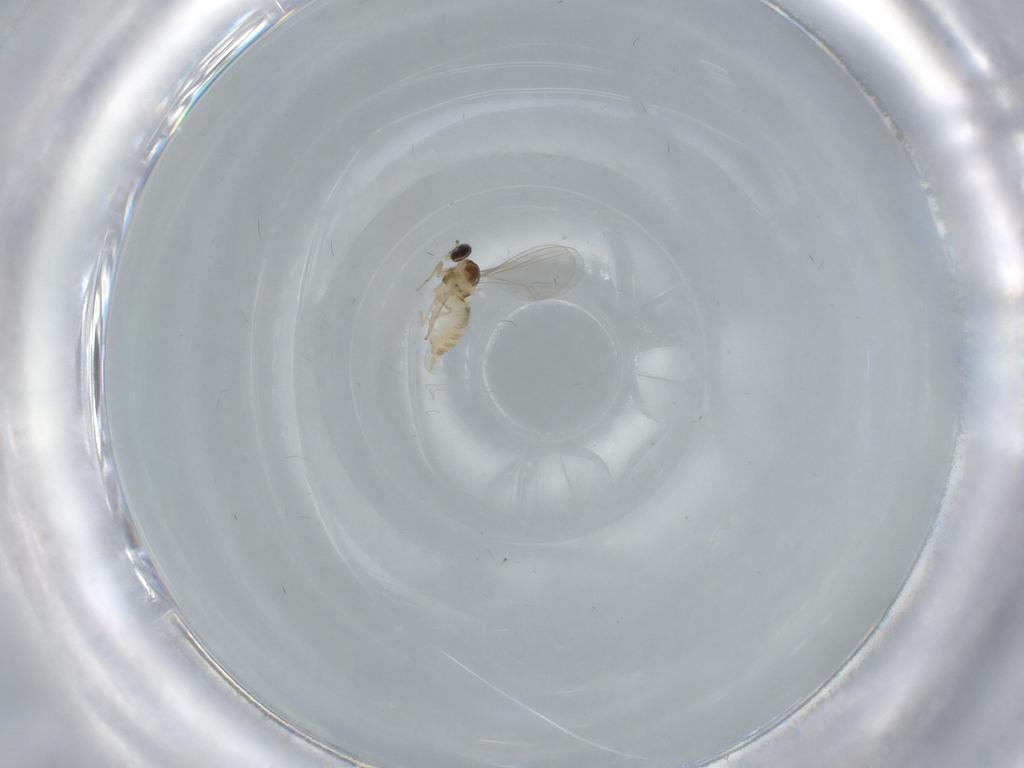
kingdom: Animalia
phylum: Arthropoda
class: Insecta
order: Diptera
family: Cecidomyiidae
